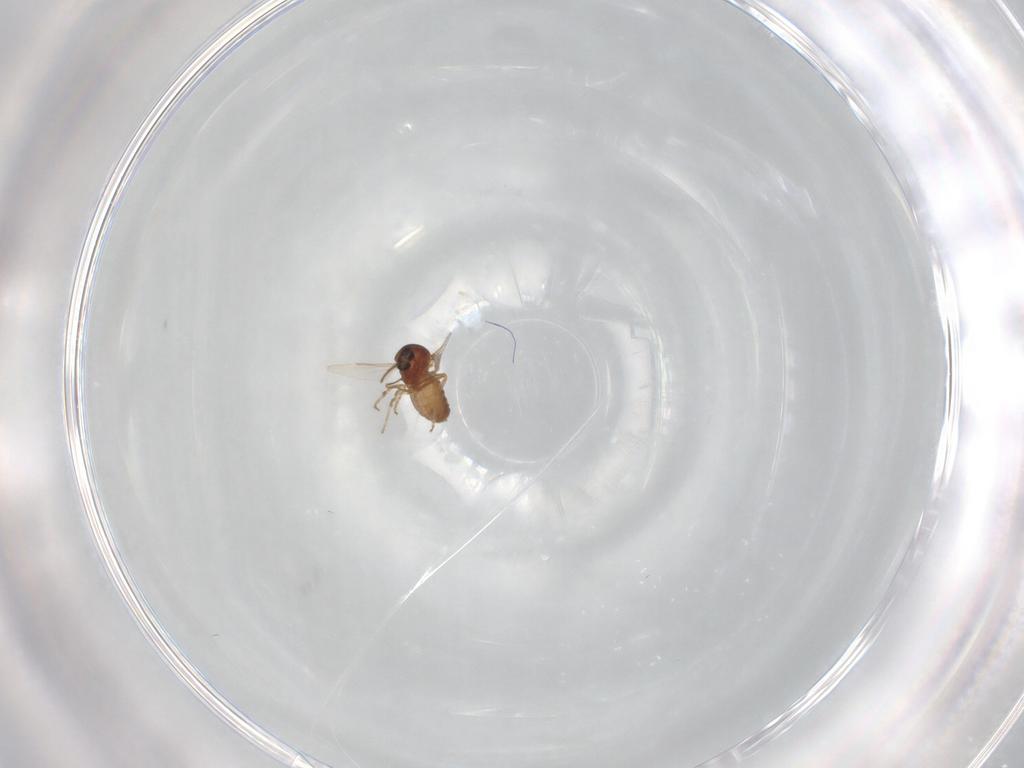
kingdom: Animalia
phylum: Arthropoda
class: Insecta
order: Diptera
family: Ceratopogonidae
